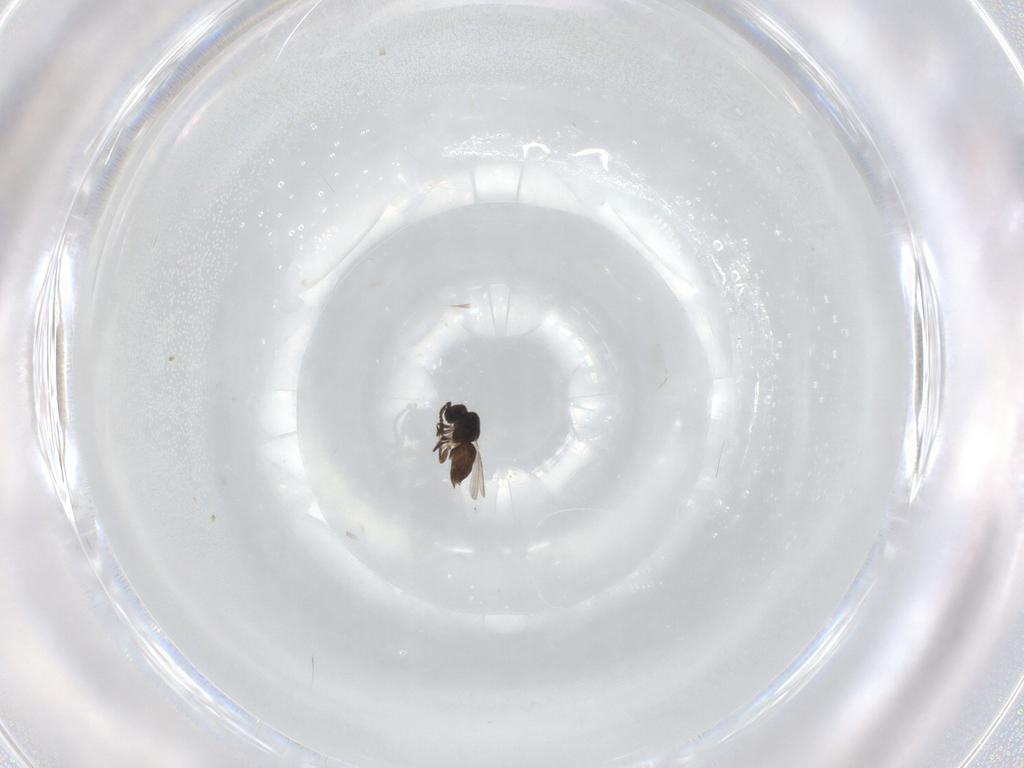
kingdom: Animalia
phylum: Arthropoda
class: Insecta
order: Hymenoptera
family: Ceraphronidae
